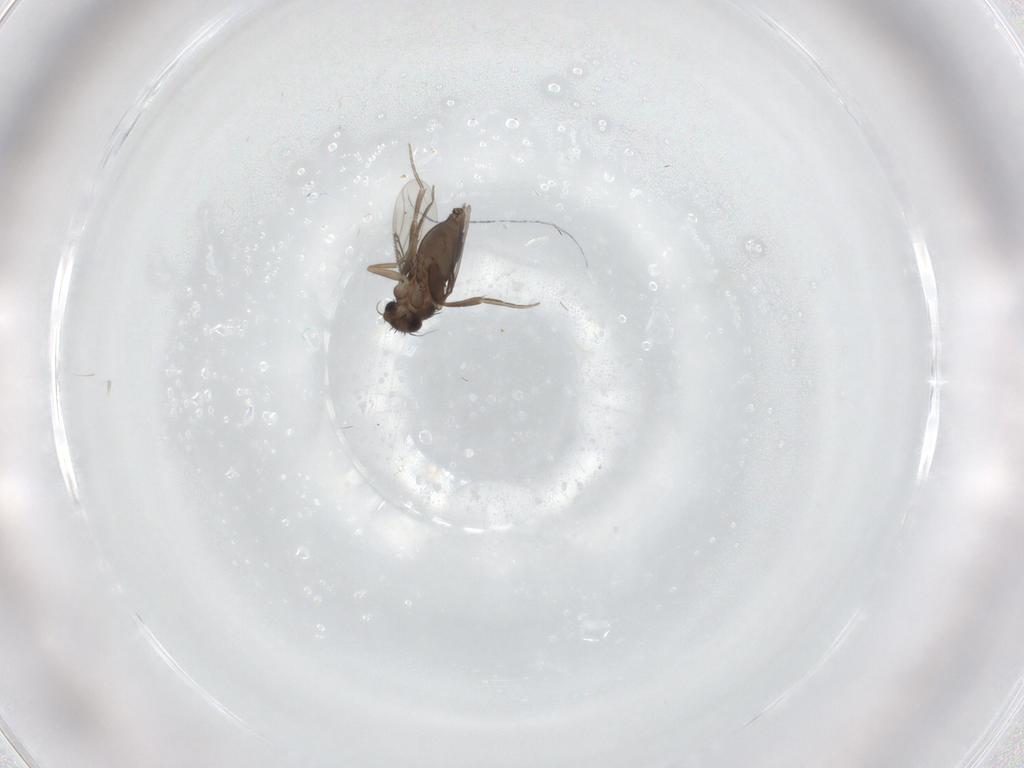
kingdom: Animalia
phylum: Arthropoda
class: Insecta
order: Diptera
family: Phoridae
